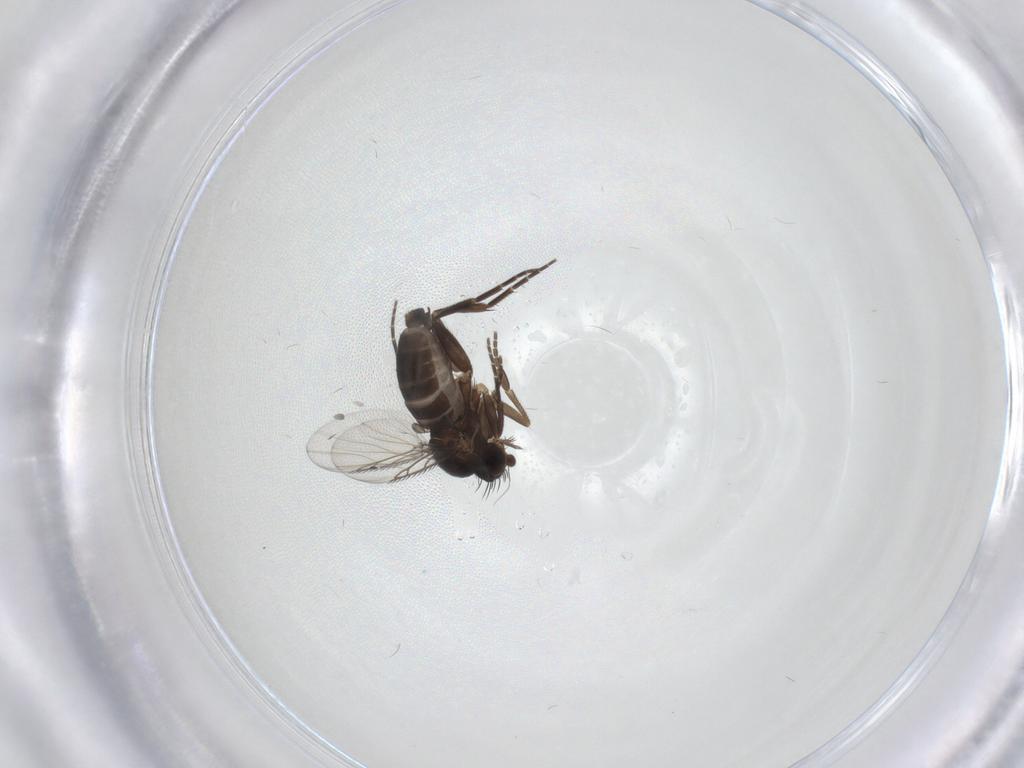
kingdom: Animalia
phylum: Arthropoda
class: Insecta
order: Diptera
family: Phoridae
